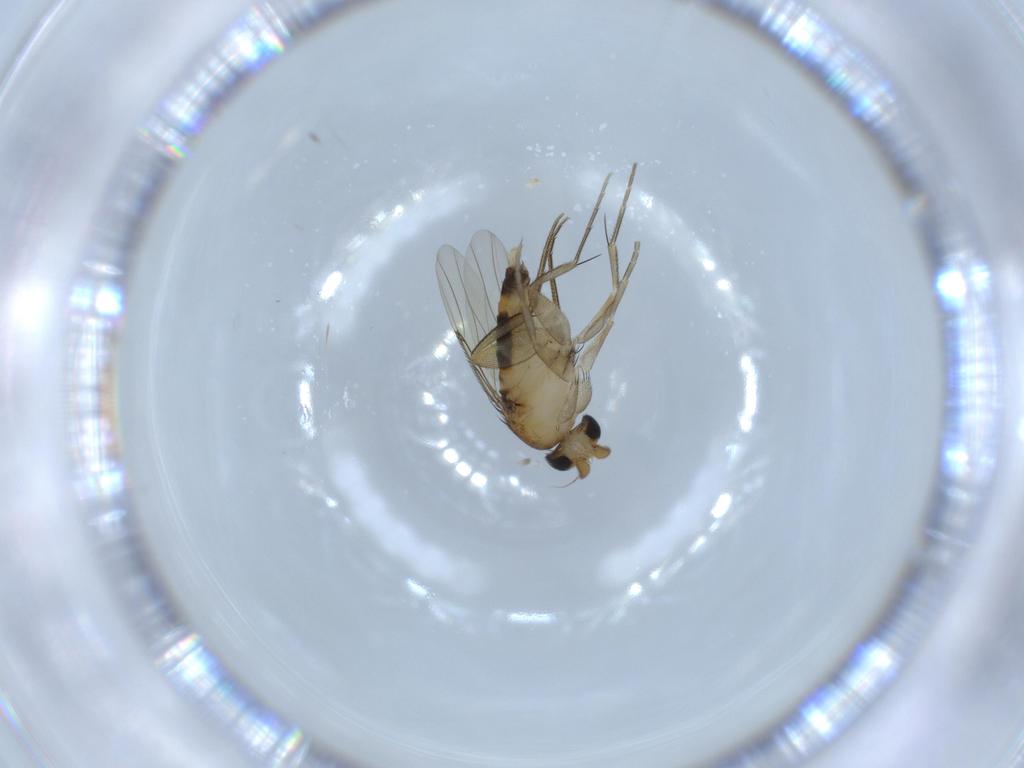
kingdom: Animalia
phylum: Arthropoda
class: Insecta
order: Diptera
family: Phoridae
